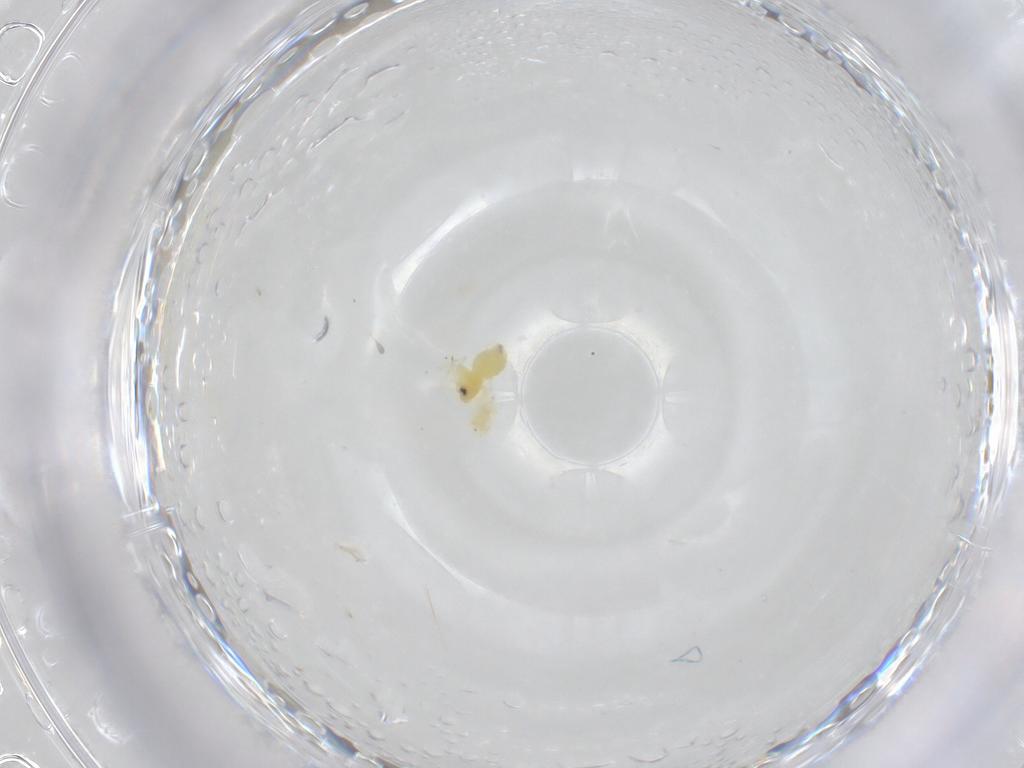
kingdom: Animalia
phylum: Arthropoda
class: Insecta
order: Hemiptera
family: Aleyrodidae
